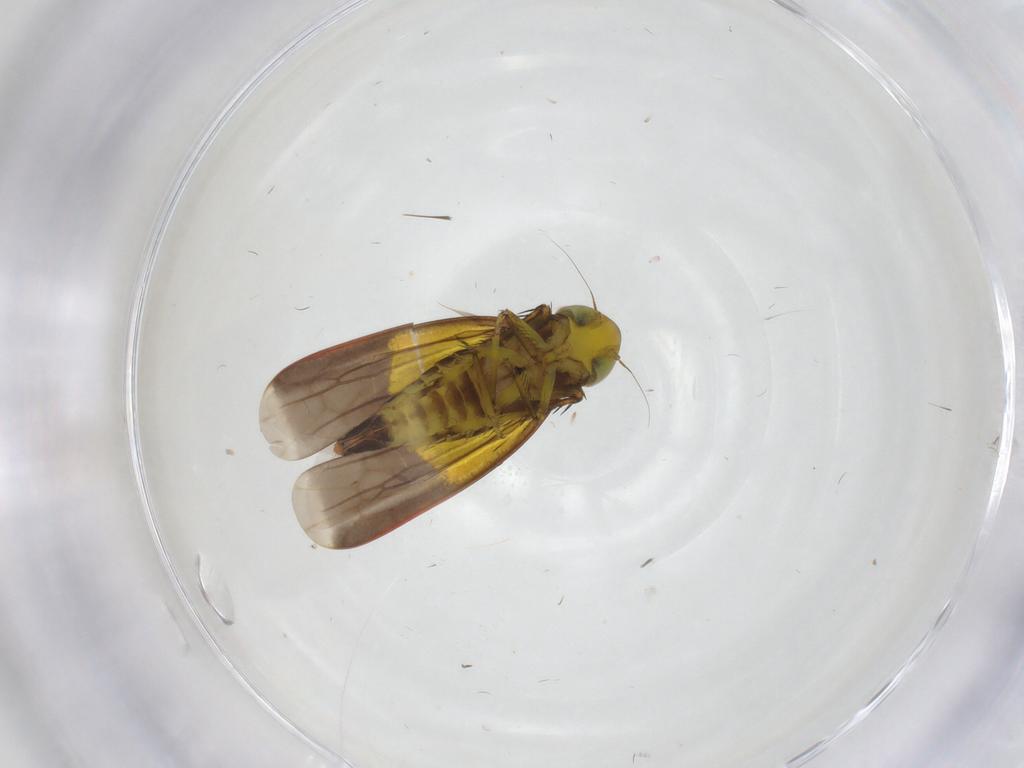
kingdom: Animalia
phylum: Arthropoda
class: Insecta
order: Hemiptera
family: Cicadellidae
